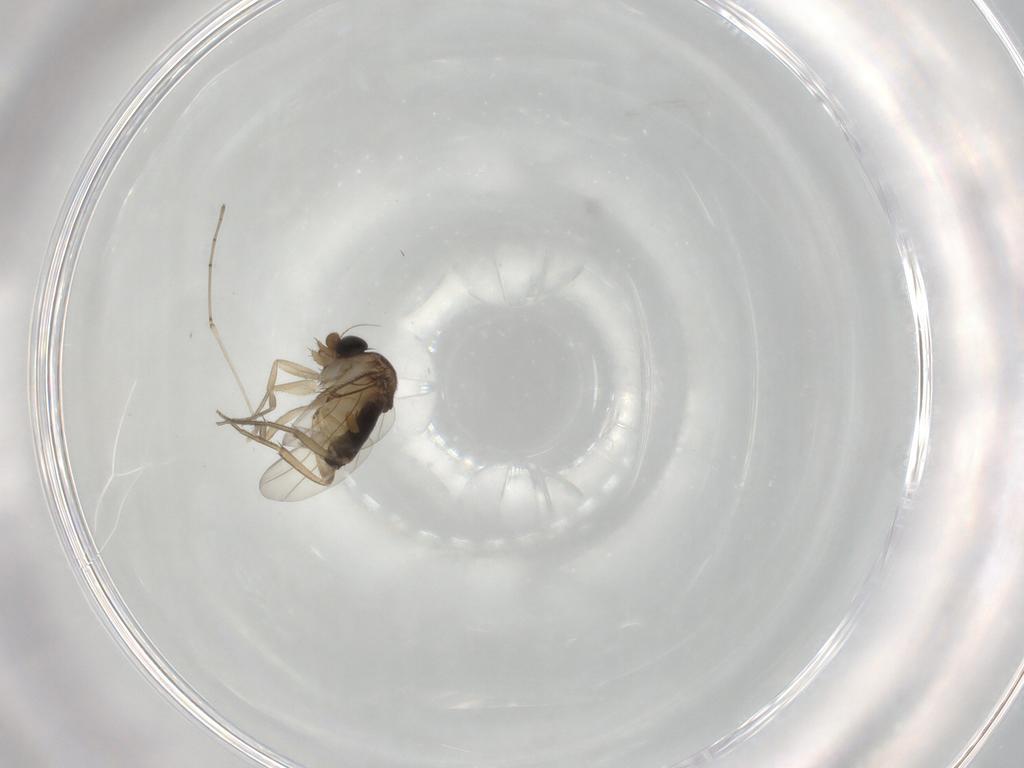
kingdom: Animalia
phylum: Arthropoda
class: Insecta
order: Diptera
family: Phoridae
